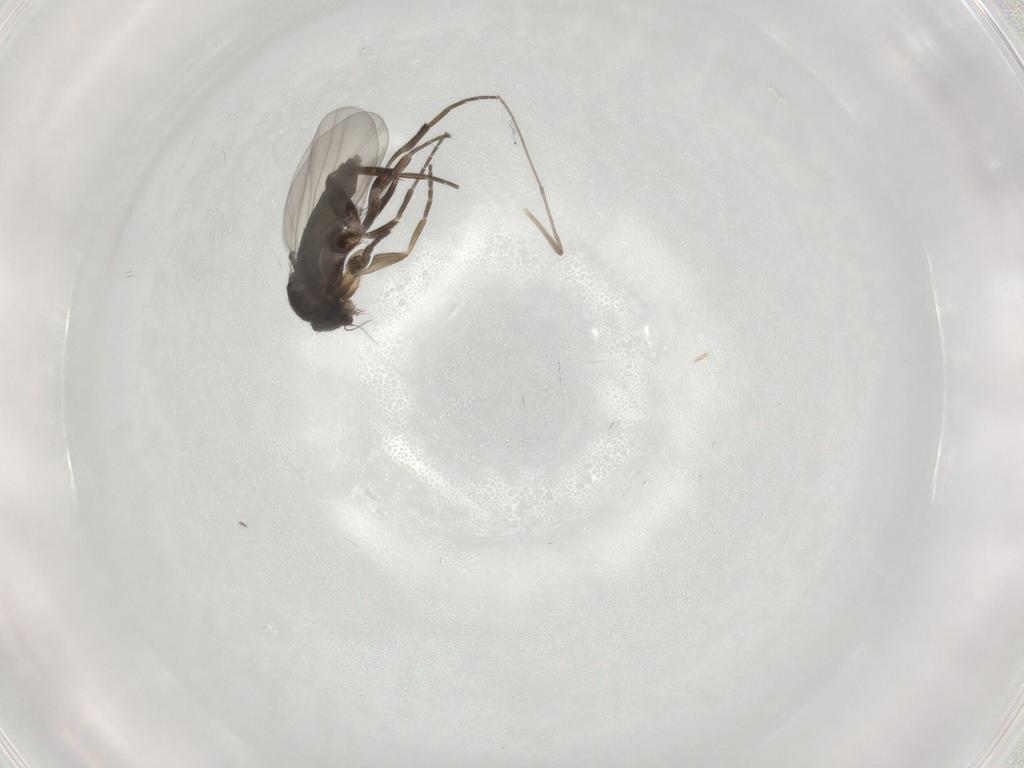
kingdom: Animalia
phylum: Arthropoda
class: Insecta
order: Diptera
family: Phoridae
